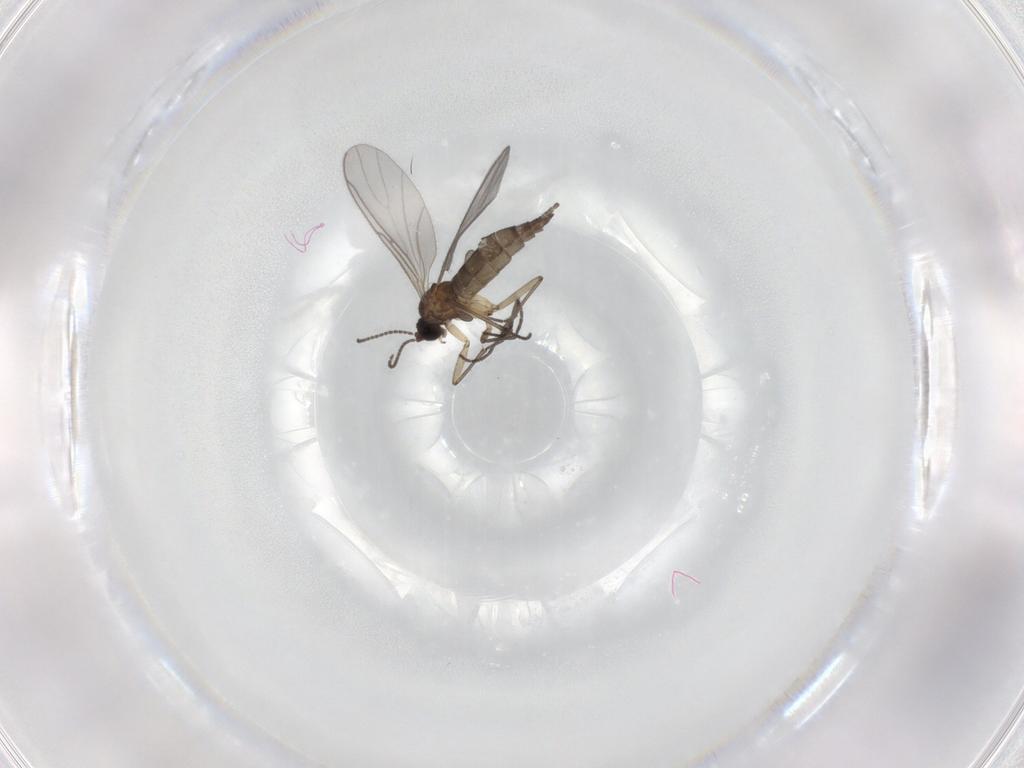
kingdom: Animalia
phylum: Arthropoda
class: Insecta
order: Diptera
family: Sciaridae
